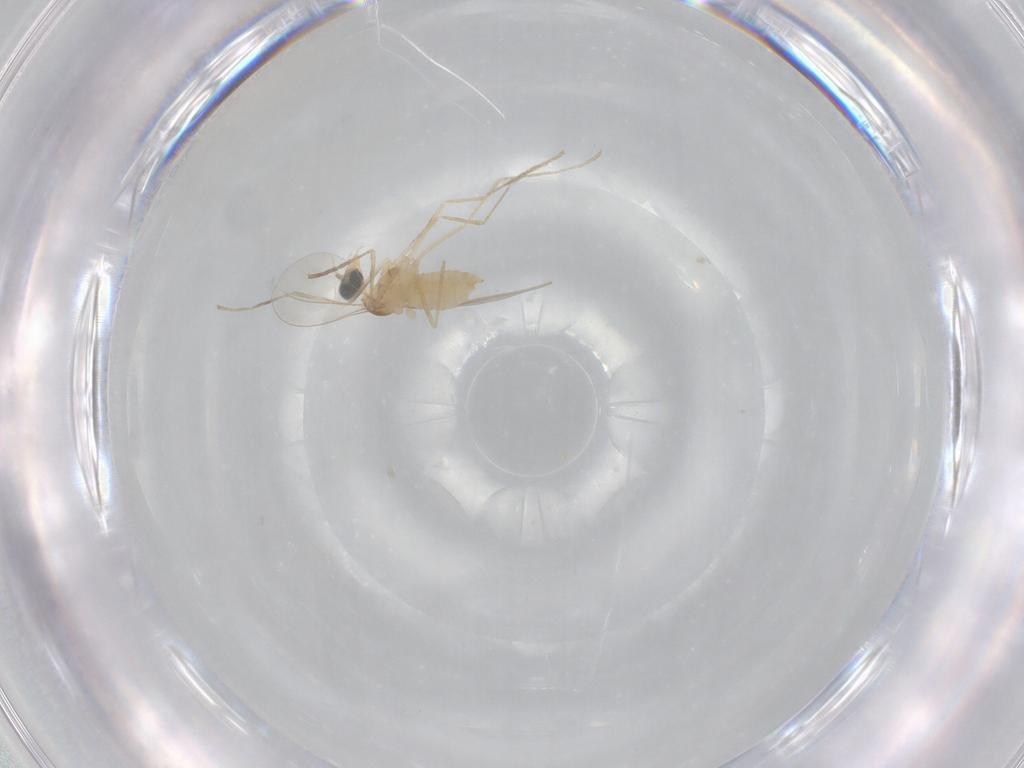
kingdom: Animalia
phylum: Arthropoda
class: Insecta
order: Diptera
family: Cecidomyiidae
